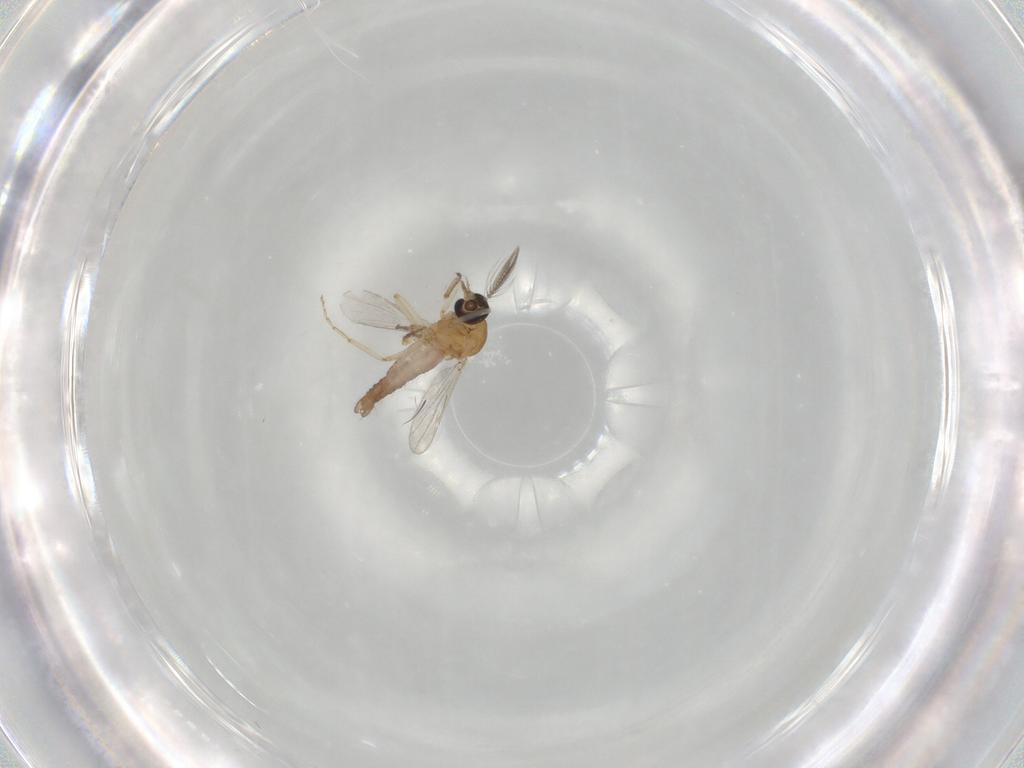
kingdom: Animalia
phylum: Arthropoda
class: Insecta
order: Diptera
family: Ceratopogonidae
